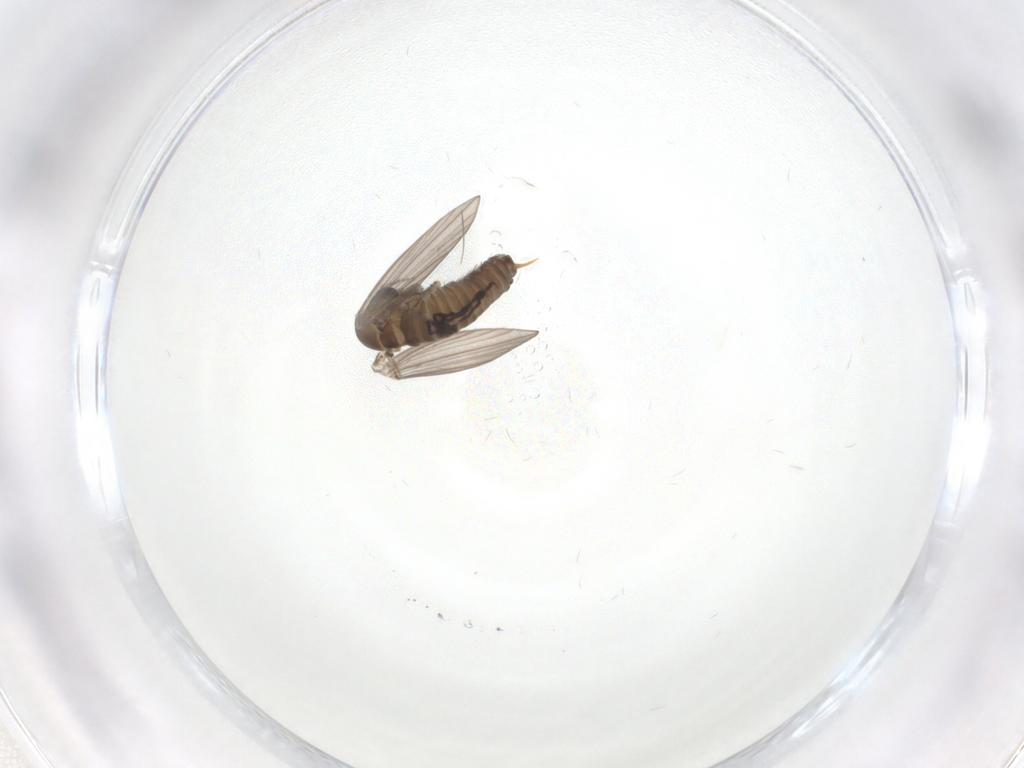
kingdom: Animalia
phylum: Arthropoda
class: Insecta
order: Diptera
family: Psychodidae
